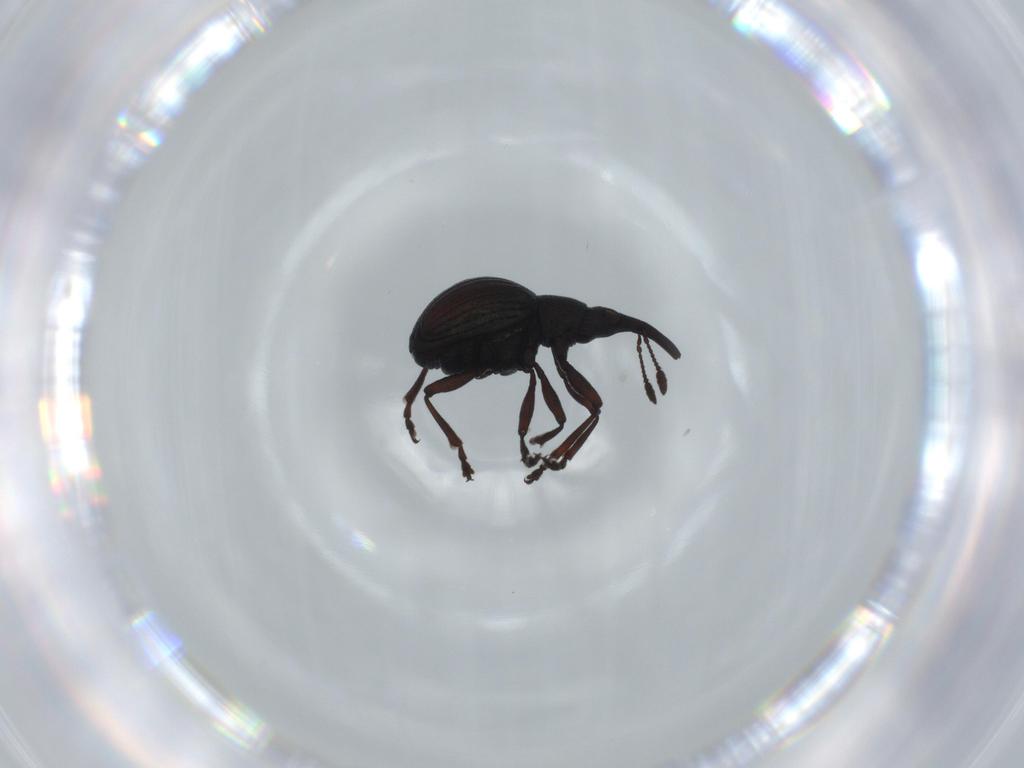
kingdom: Animalia
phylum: Arthropoda
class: Insecta
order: Coleoptera
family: Brentidae
